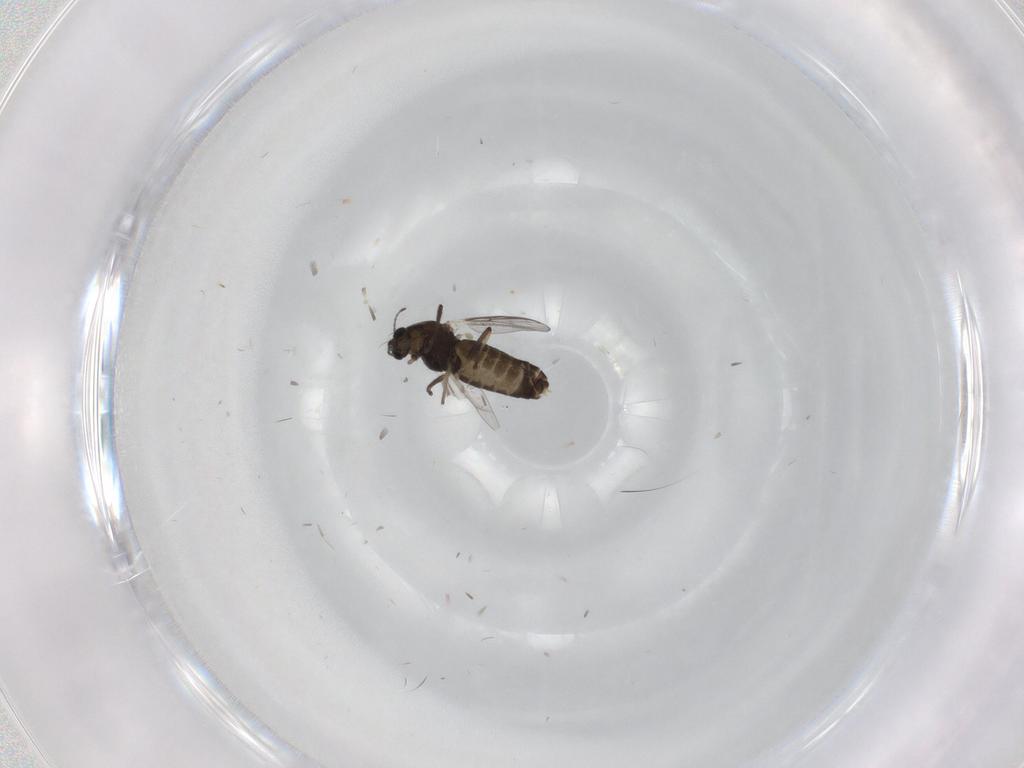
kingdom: Animalia
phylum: Arthropoda
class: Insecta
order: Diptera
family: Chironomidae
